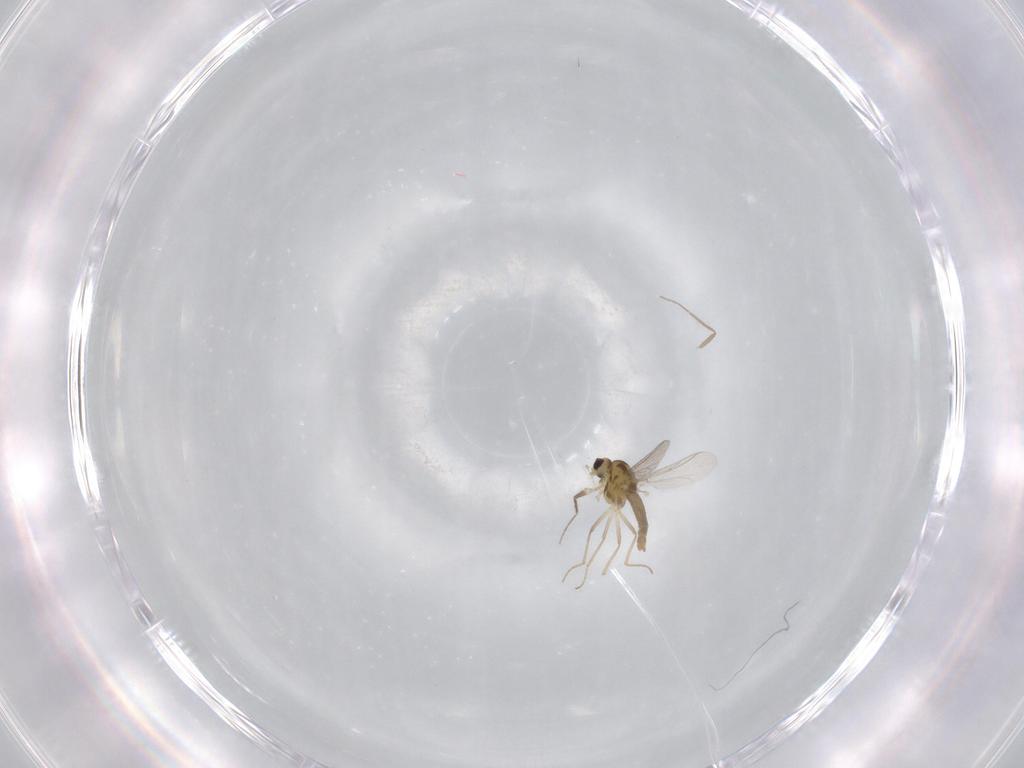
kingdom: Animalia
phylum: Arthropoda
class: Insecta
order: Diptera
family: Chironomidae
